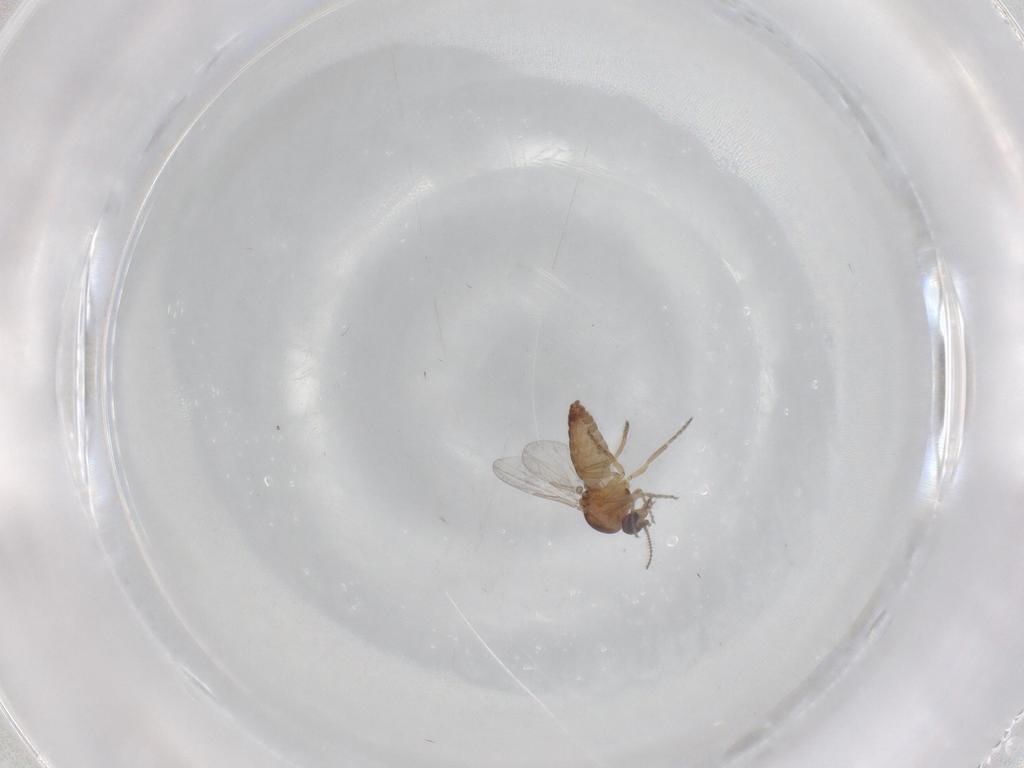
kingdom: Animalia
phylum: Arthropoda
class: Insecta
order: Diptera
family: Ceratopogonidae
